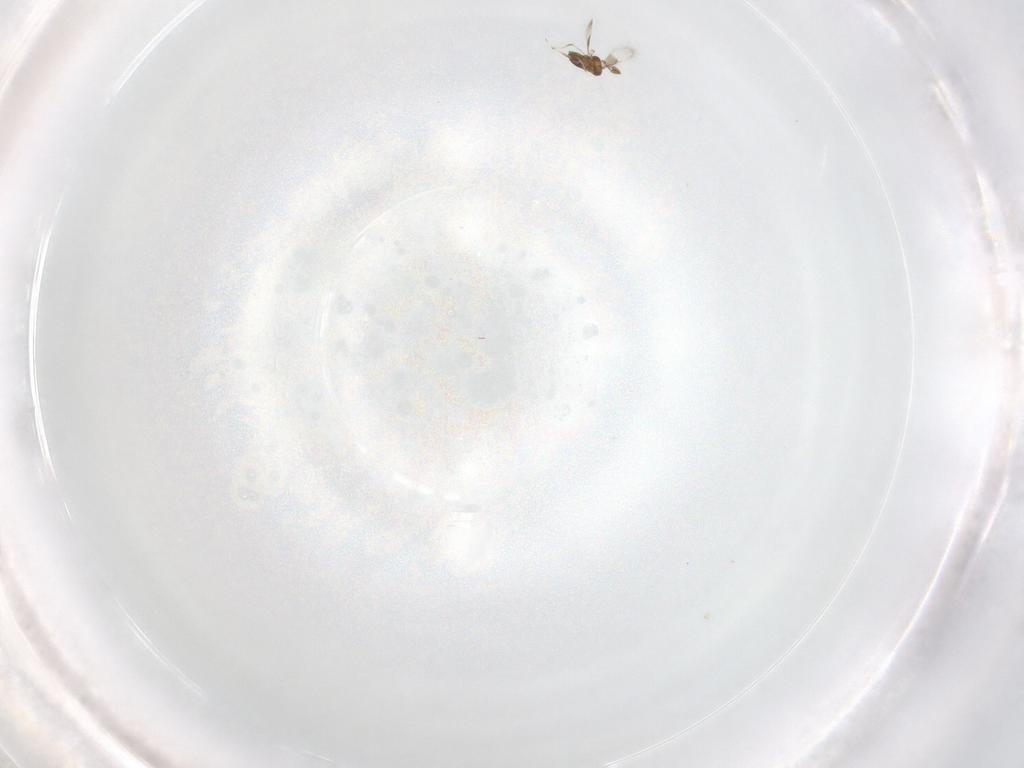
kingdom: Animalia
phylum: Arthropoda
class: Insecta
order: Hymenoptera
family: Trichogrammatidae
